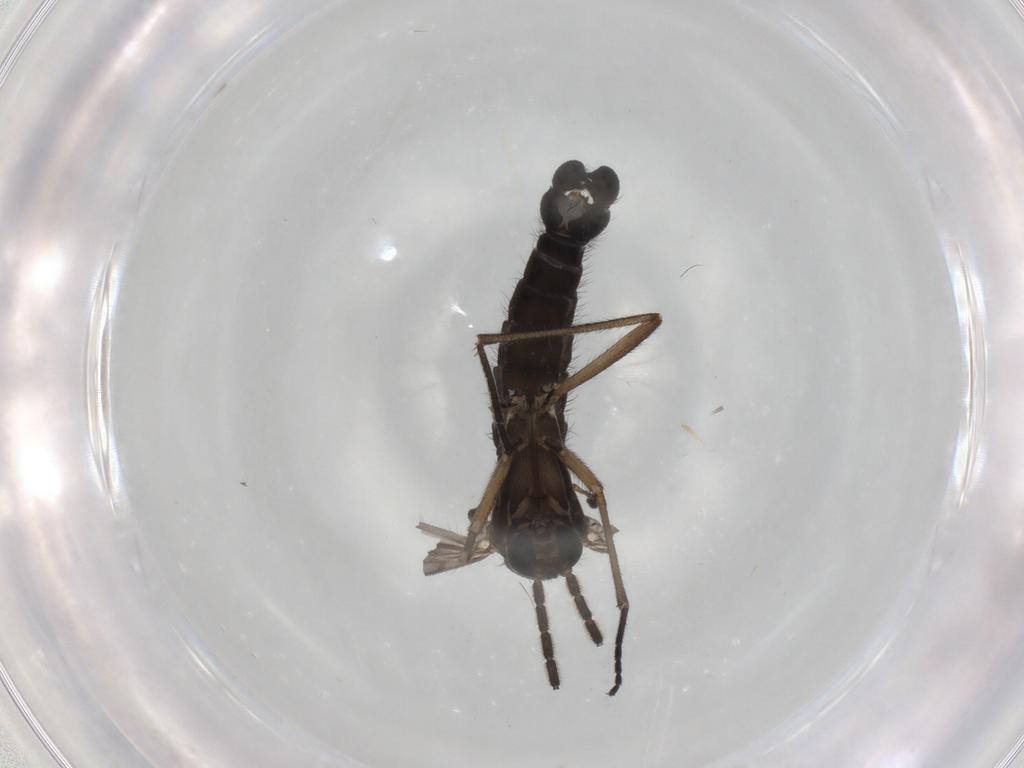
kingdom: Animalia
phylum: Arthropoda
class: Insecta
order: Diptera
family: Sciaridae
